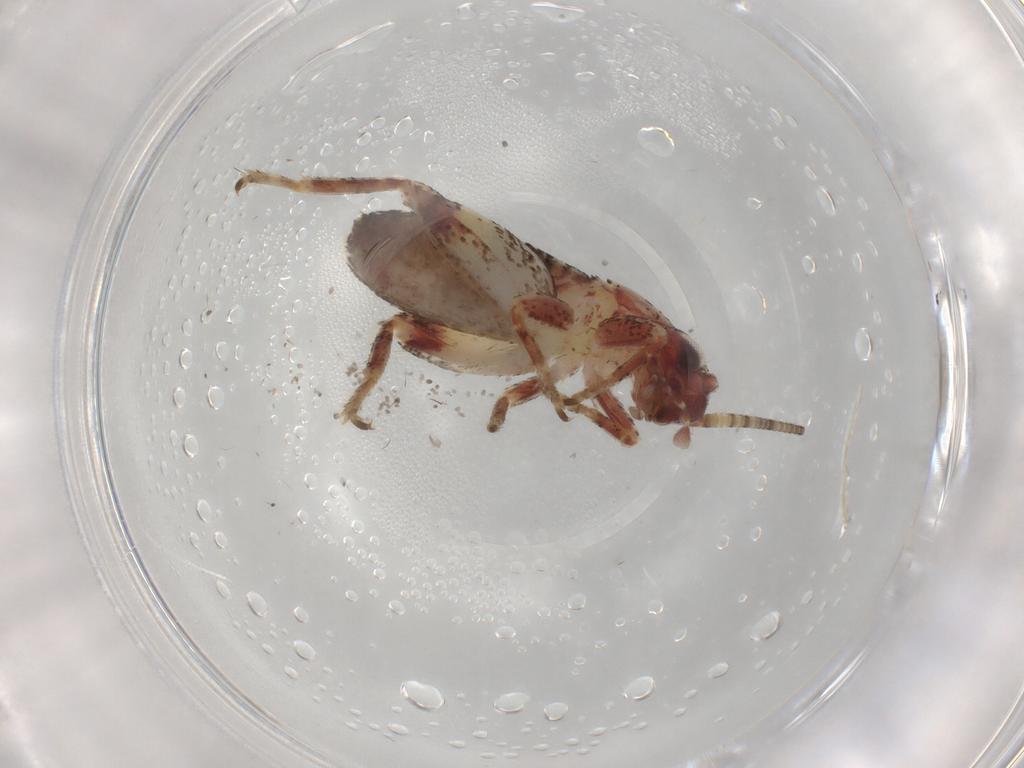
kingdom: Animalia
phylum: Arthropoda
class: Insecta
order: Orthoptera
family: Mogoplistidae
